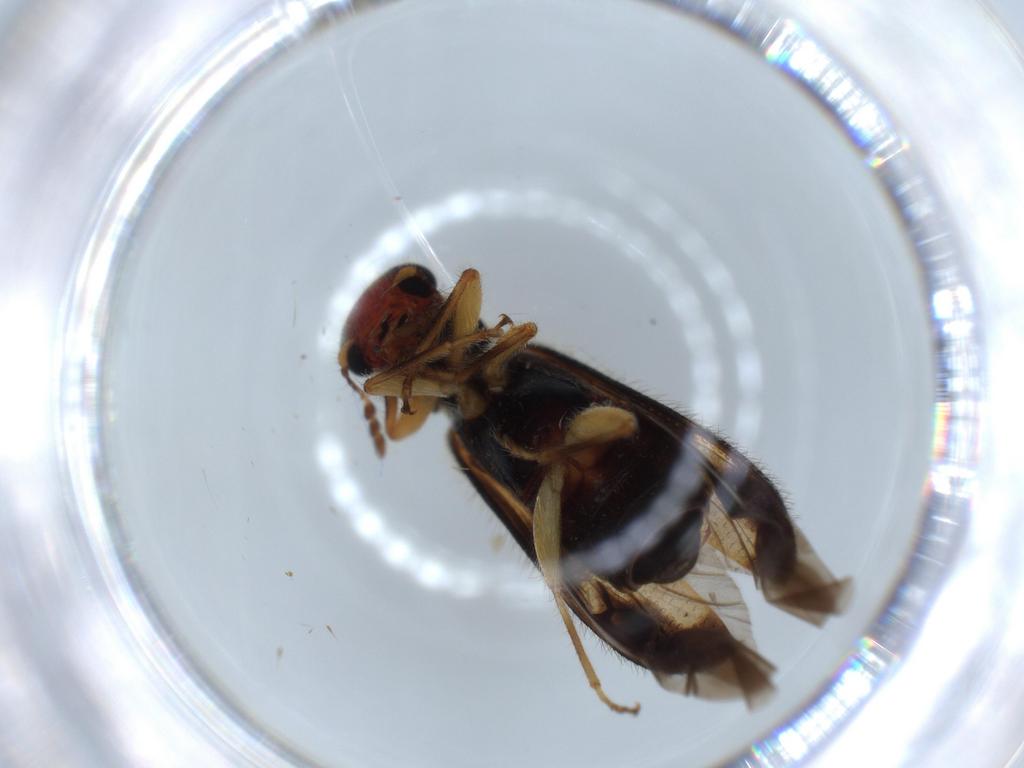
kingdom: Animalia
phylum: Arthropoda
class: Insecta
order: Coleoptera
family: Cleridae
